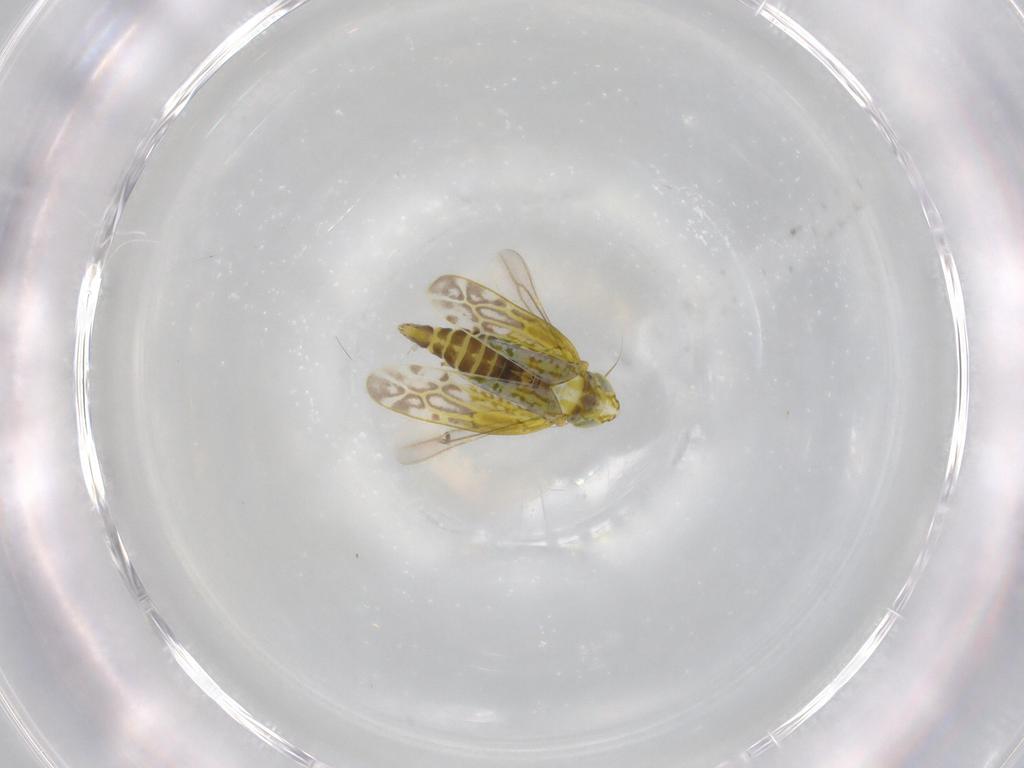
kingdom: Animalia
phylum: Arthropoda
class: Insecta
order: Hemiptera
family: Cicadellidae
